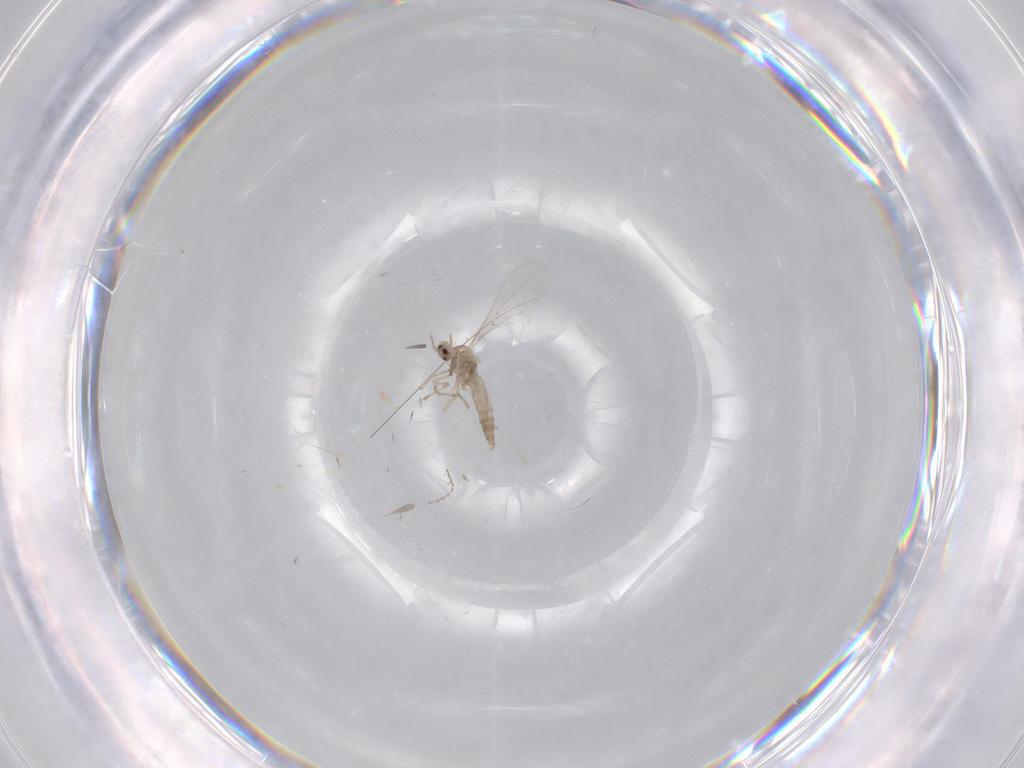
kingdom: Animalia
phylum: Arthropoda
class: Insecta
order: Diptera
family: Cecidomyiidae
